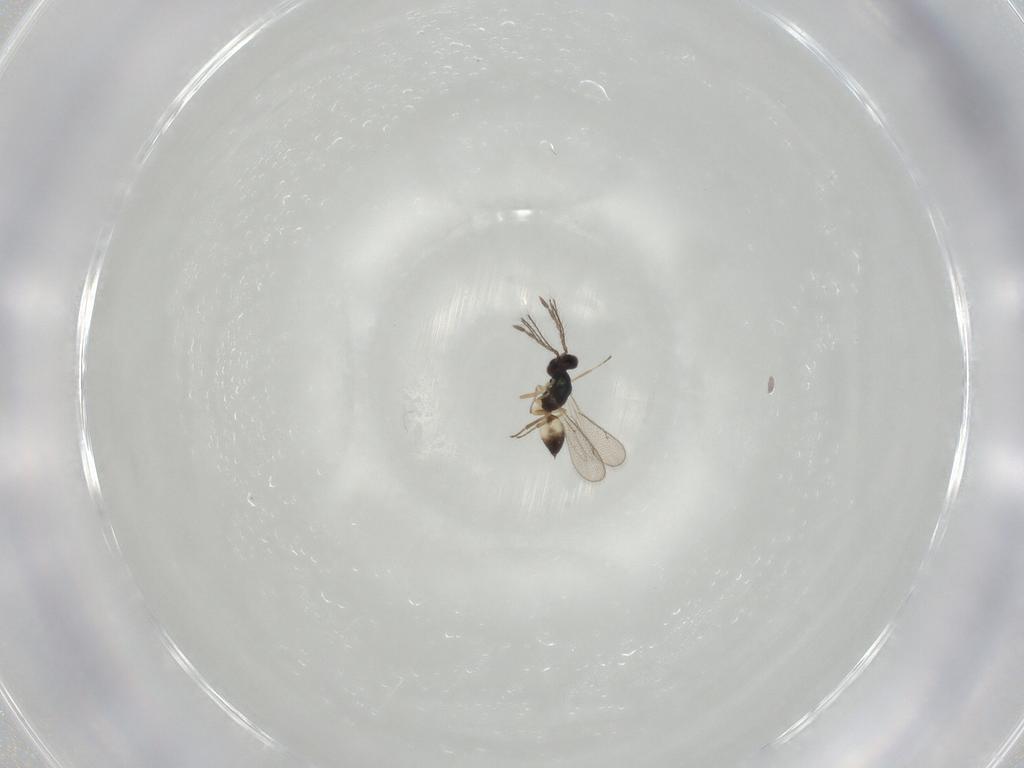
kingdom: Animalia
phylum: Arthropoda
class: Insecta
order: Hymenoptera
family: Eulophidae
